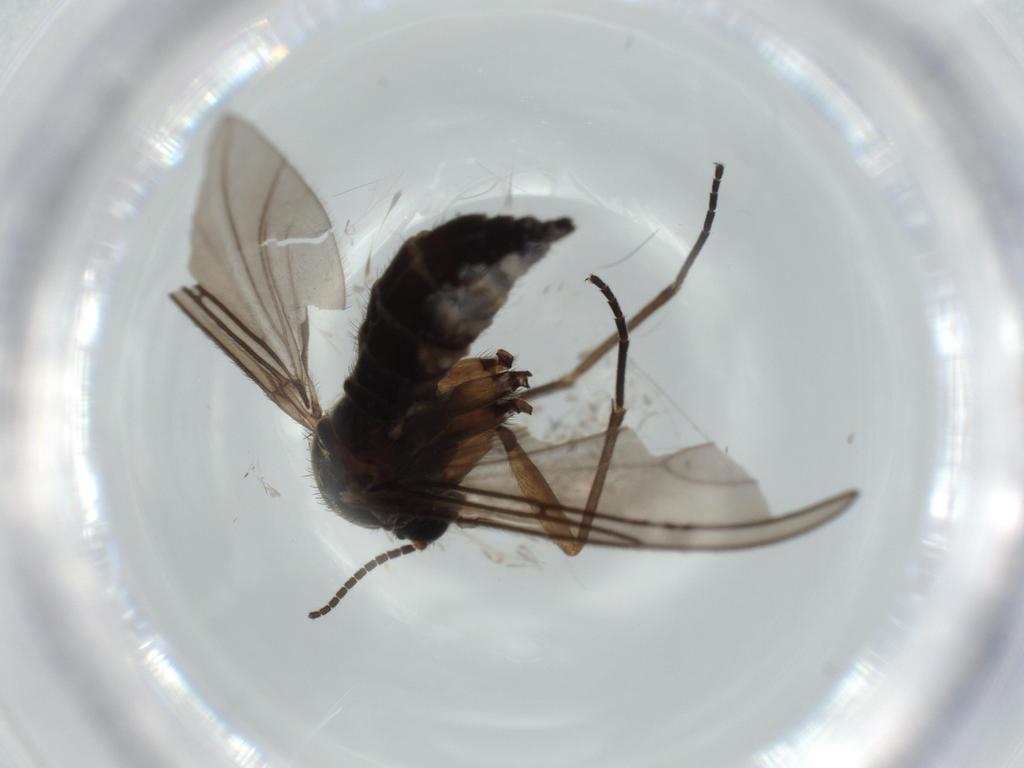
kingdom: Animalia
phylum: Arthropoda
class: Insecta
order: Diptera
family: Sciaridae
